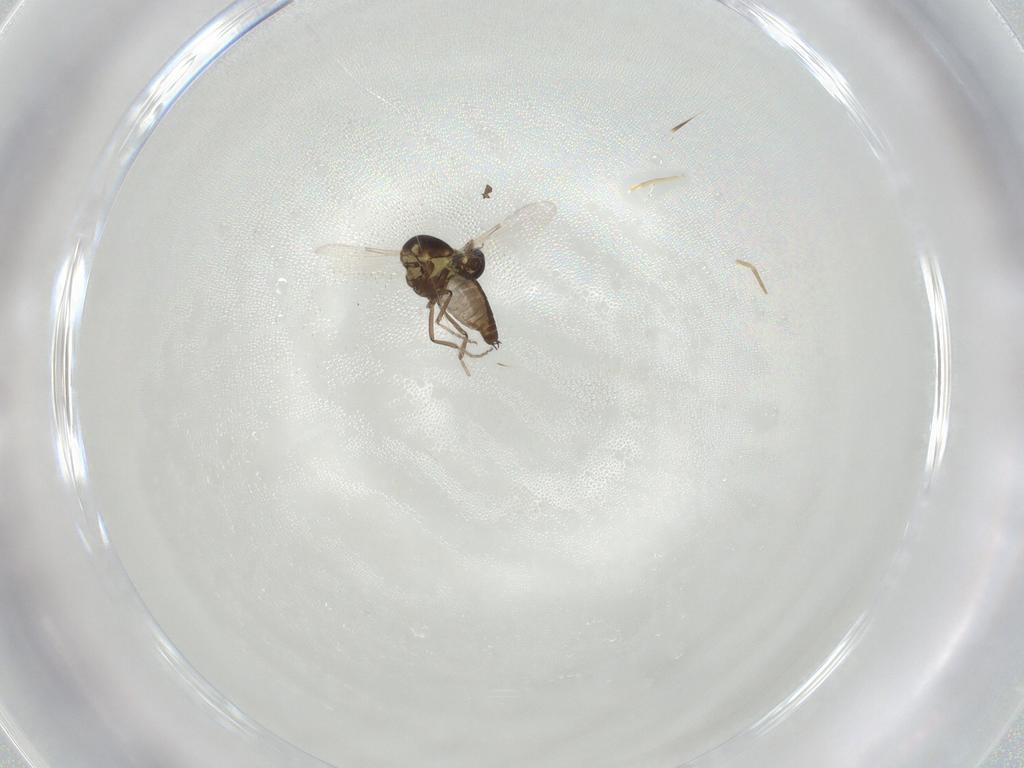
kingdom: Animalia
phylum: Arthropoda
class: Insecta
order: Diptera
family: Ceratopogonidae
